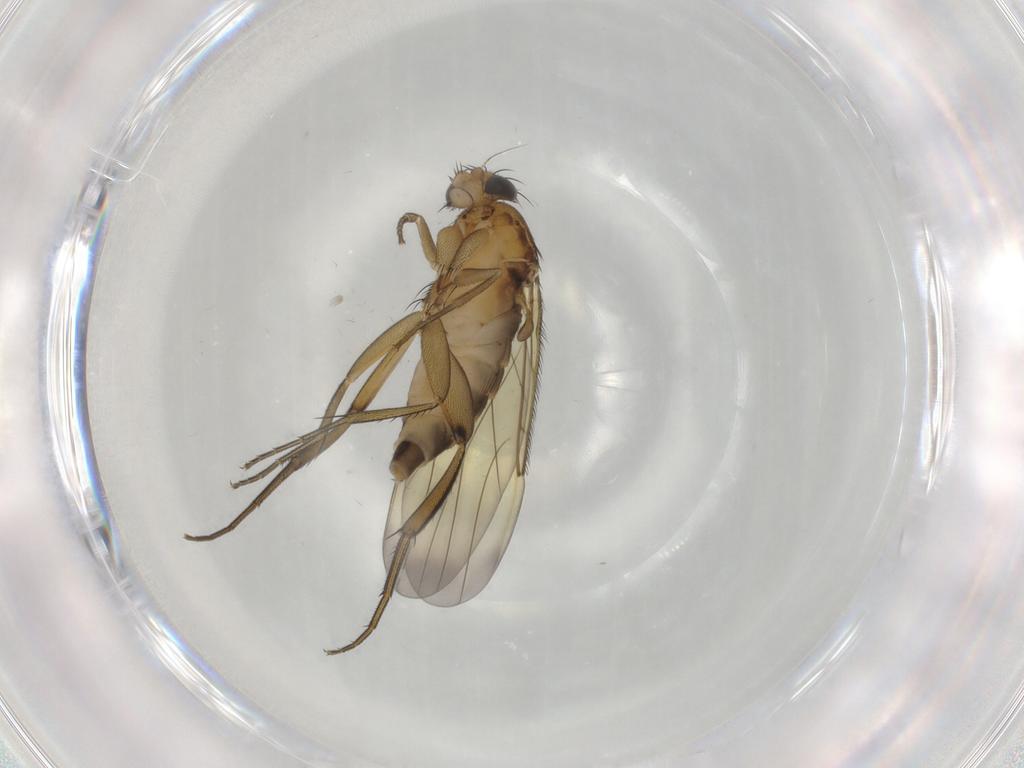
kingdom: Animalia
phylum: Arthropoda
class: Insecta
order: Diptera
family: Phoridae
